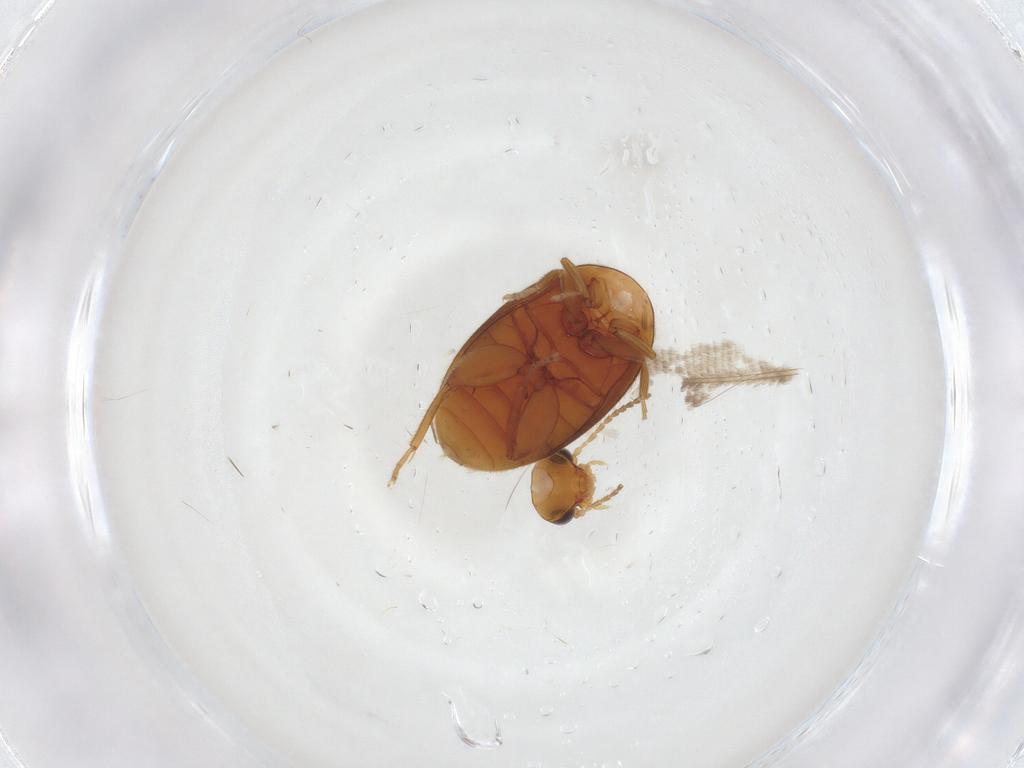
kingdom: Animalia
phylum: Arthropoda
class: Insecta
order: Coleoptera
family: Scirtidae
